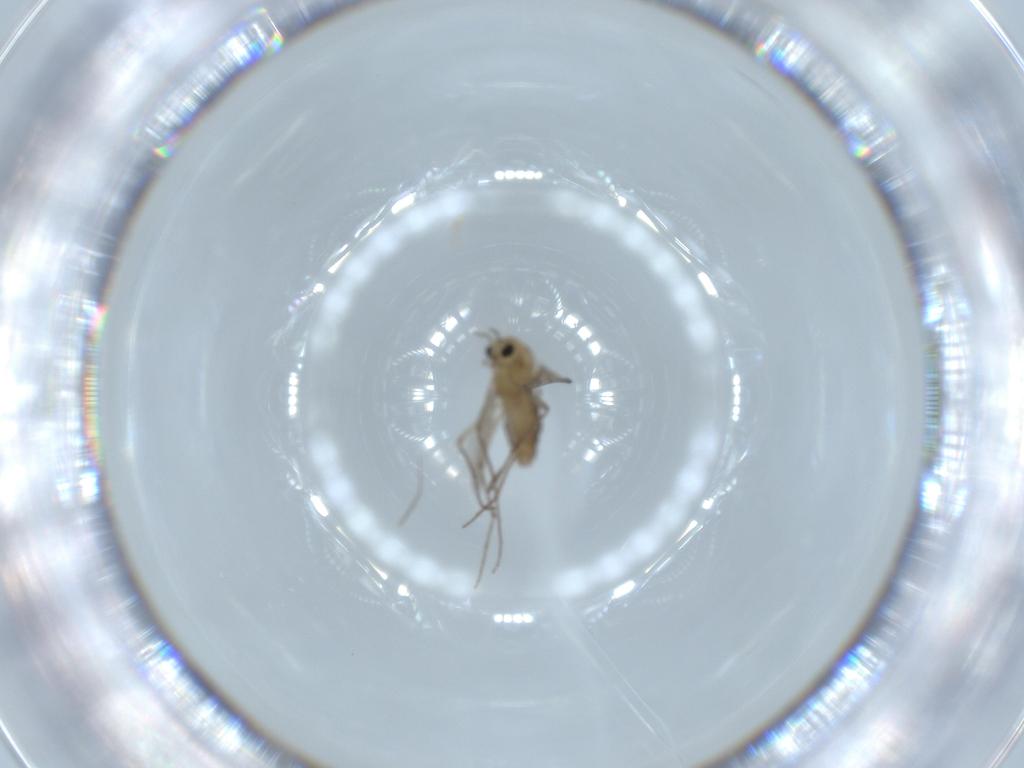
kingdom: Animalia
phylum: Arthropoda
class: Insecta
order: Diptera
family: Chironomidae
